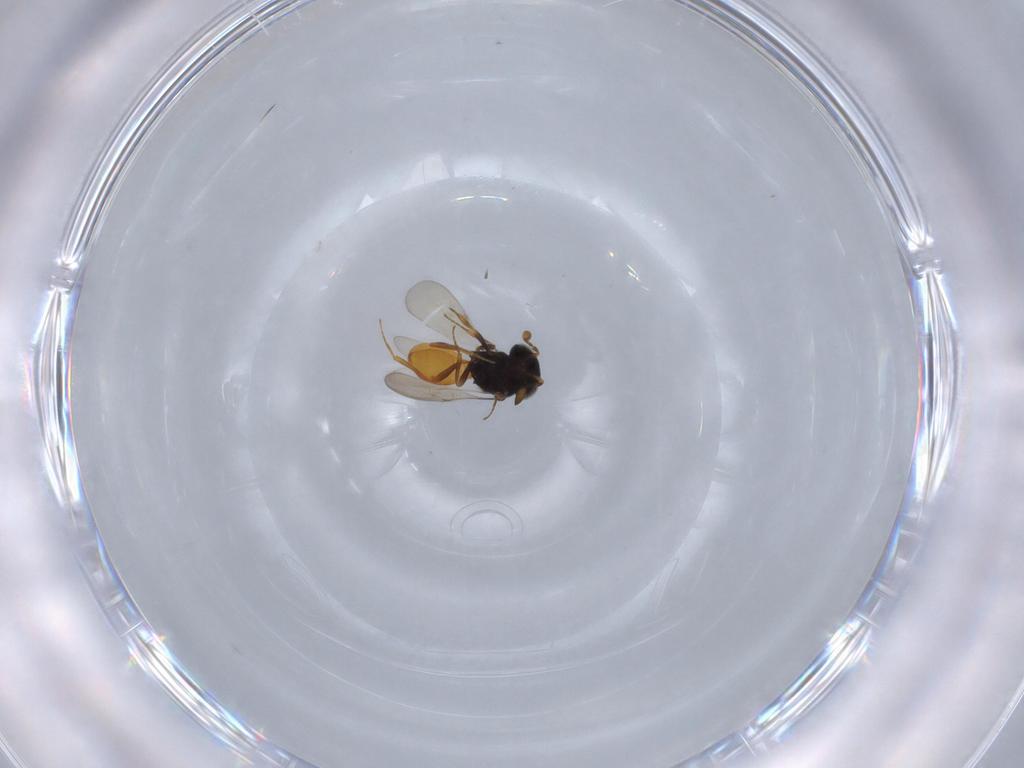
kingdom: Animalia
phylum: Arthropoda
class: Insecta
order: Hymenoptera
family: Scelionidae
